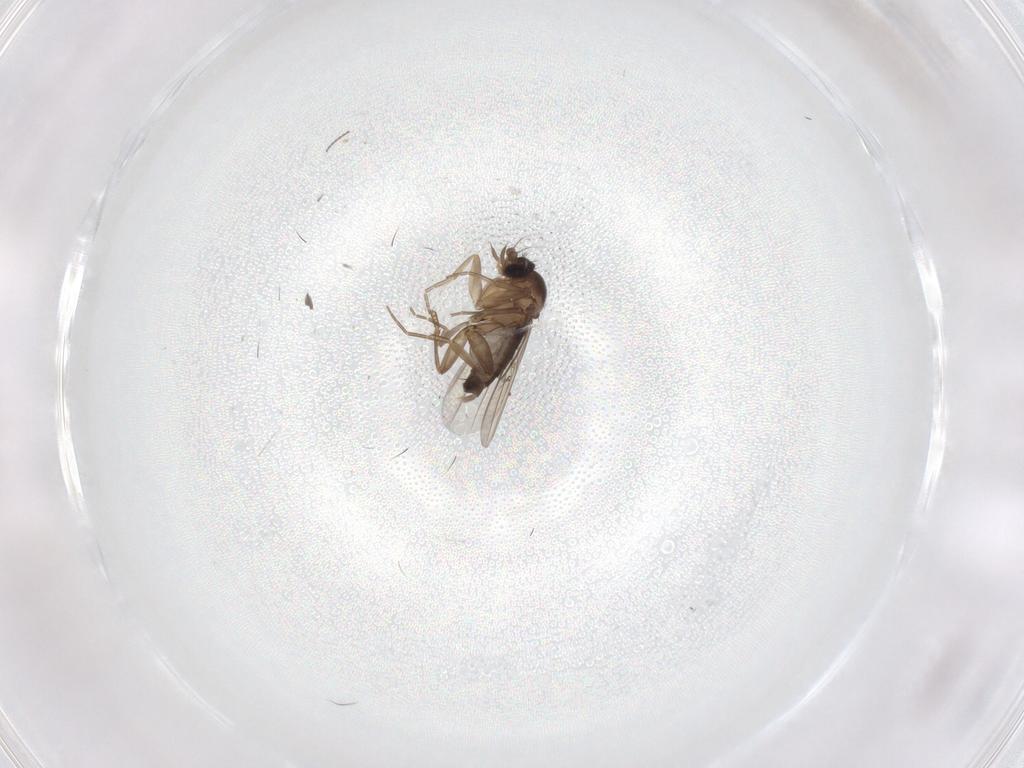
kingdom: Animalia
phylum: Arthropoda
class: Insecta
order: Diptera
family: Cecidomyiidae
